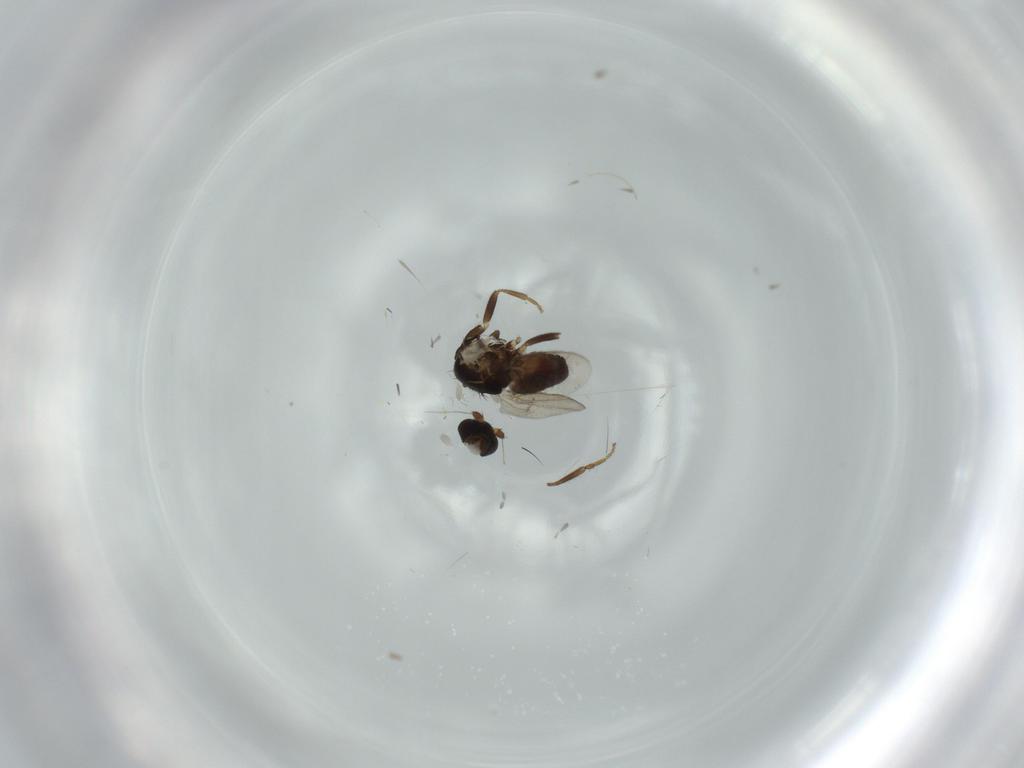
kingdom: Animalia
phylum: Arthropoda
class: Insecta
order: Diptera
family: Sphaeroceridae
